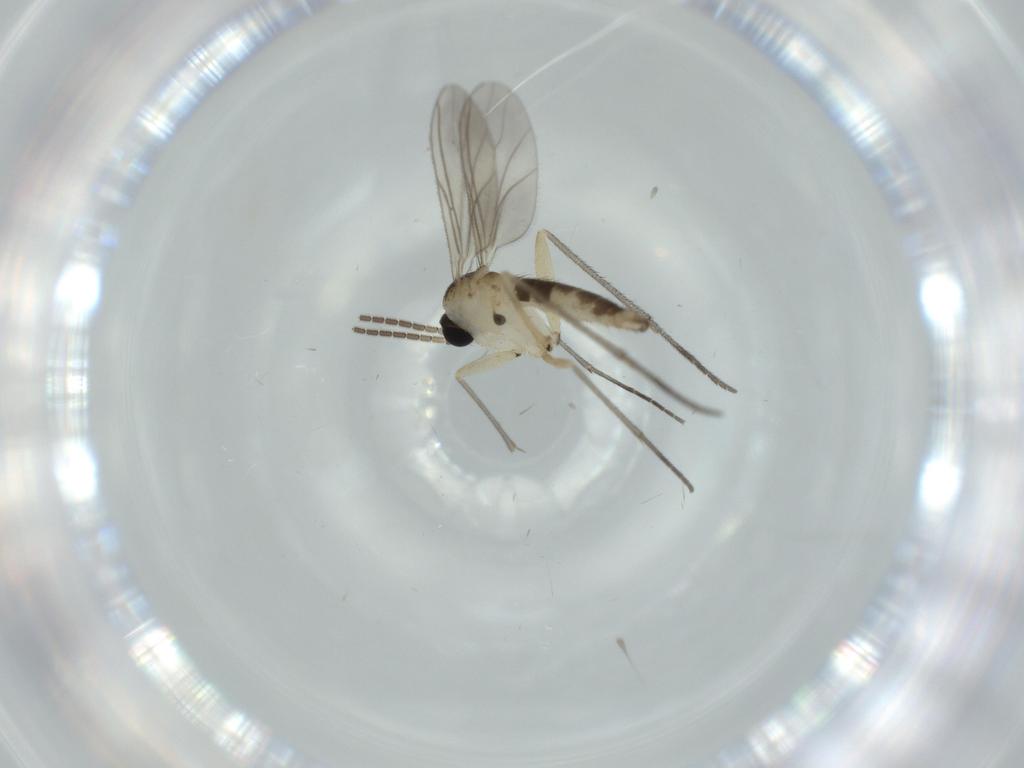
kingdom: Animalia
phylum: Arthropoda
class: Insecta
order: Diptera
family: Sciaridae
